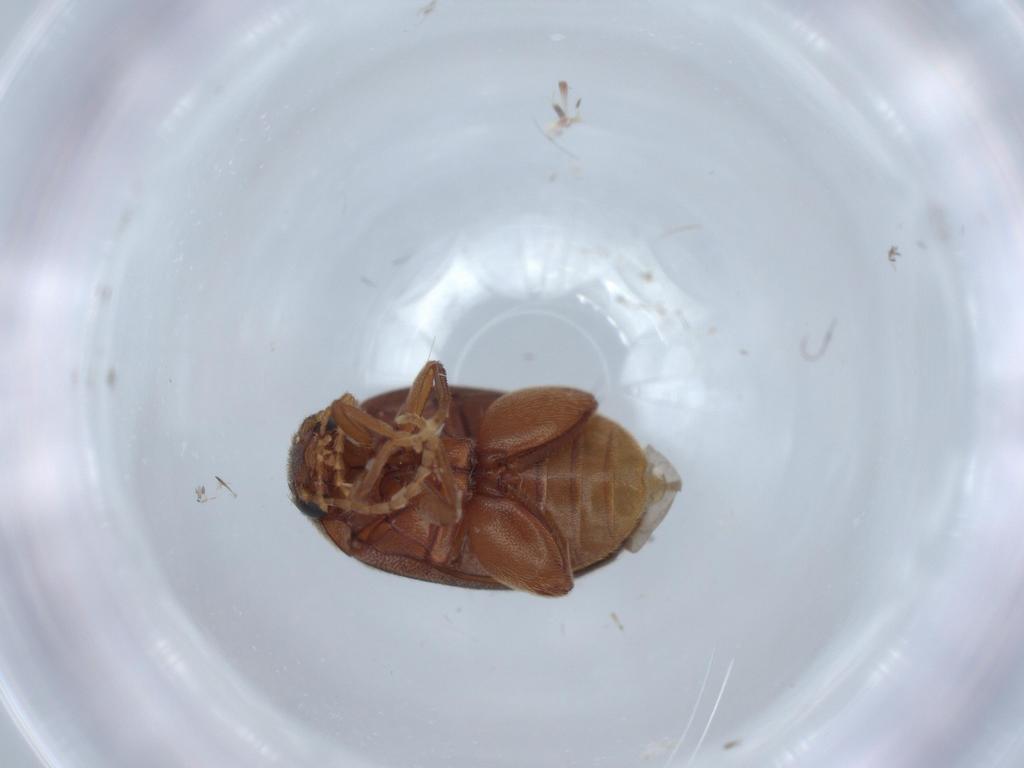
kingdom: Animalia
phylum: Arthropoda
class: Insecta
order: Coleoptera
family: Scirtidae
